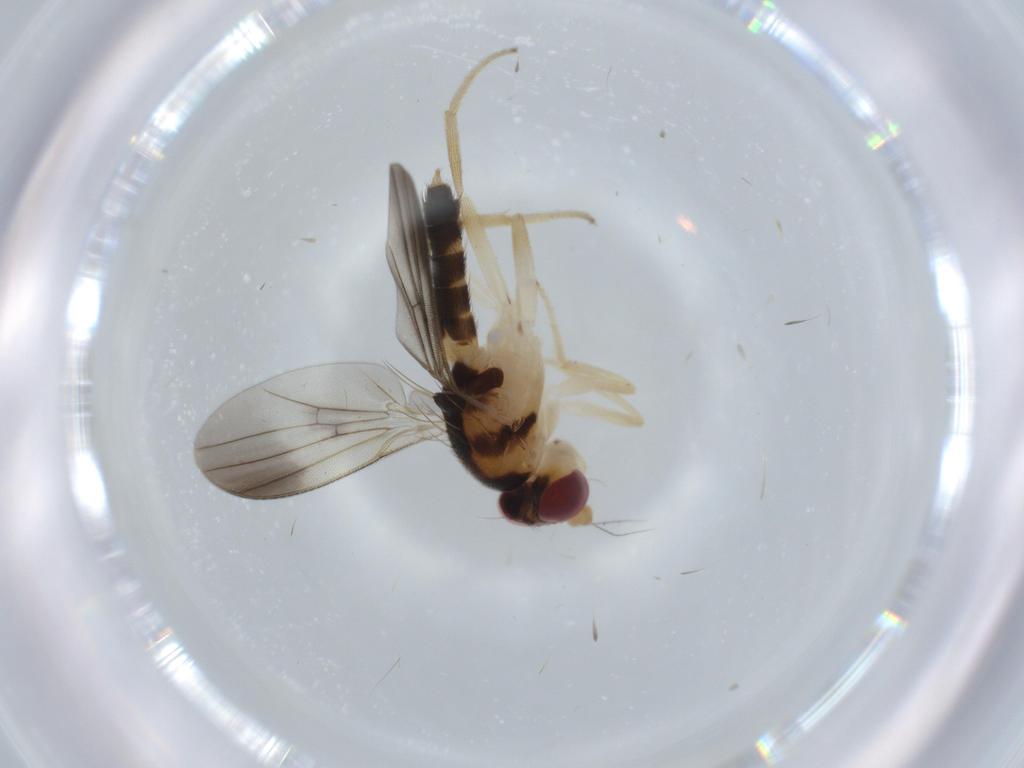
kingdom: Animalia
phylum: Arthropoda
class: Insecta
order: Diptera
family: Clusiidae
